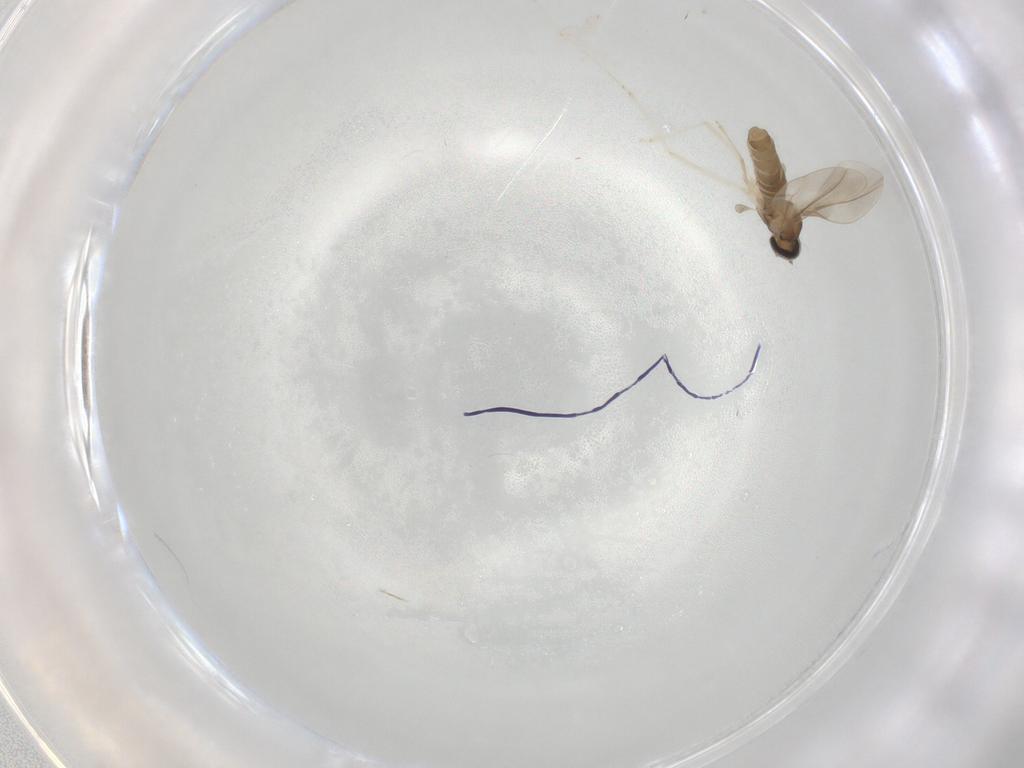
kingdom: Animalia
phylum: Arthropoda
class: Insecta
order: Diptera
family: Cecidomyiidae
